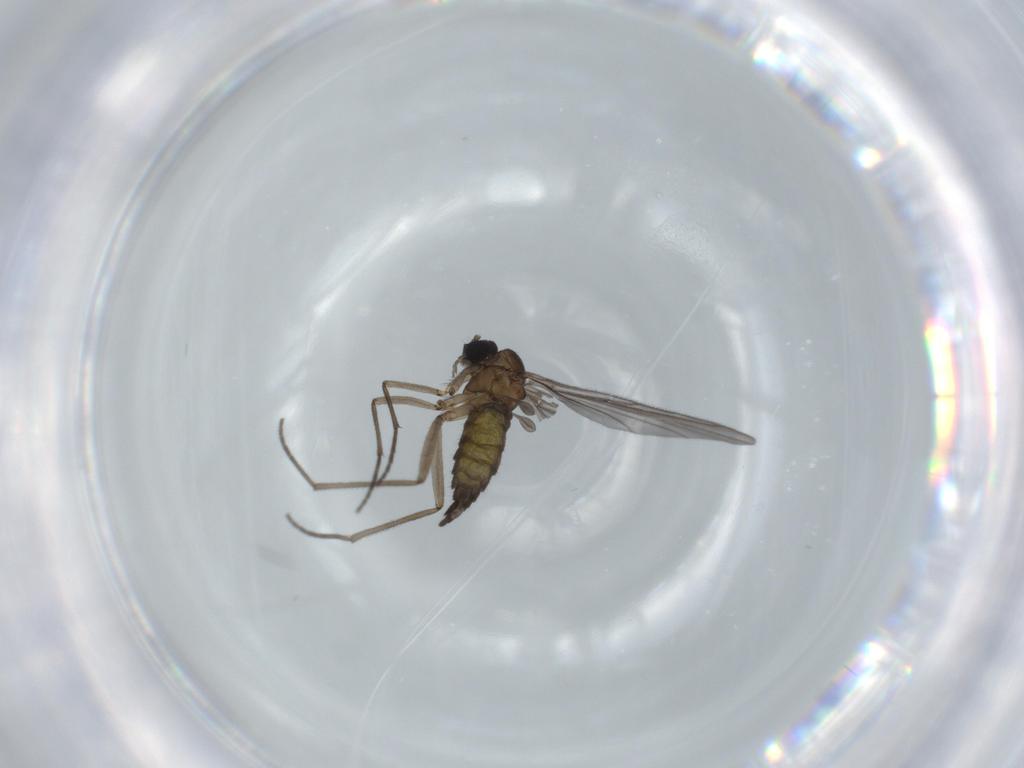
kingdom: Animalia
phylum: Arthropoda
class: Insecta
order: Diptera
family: Sciaridae
